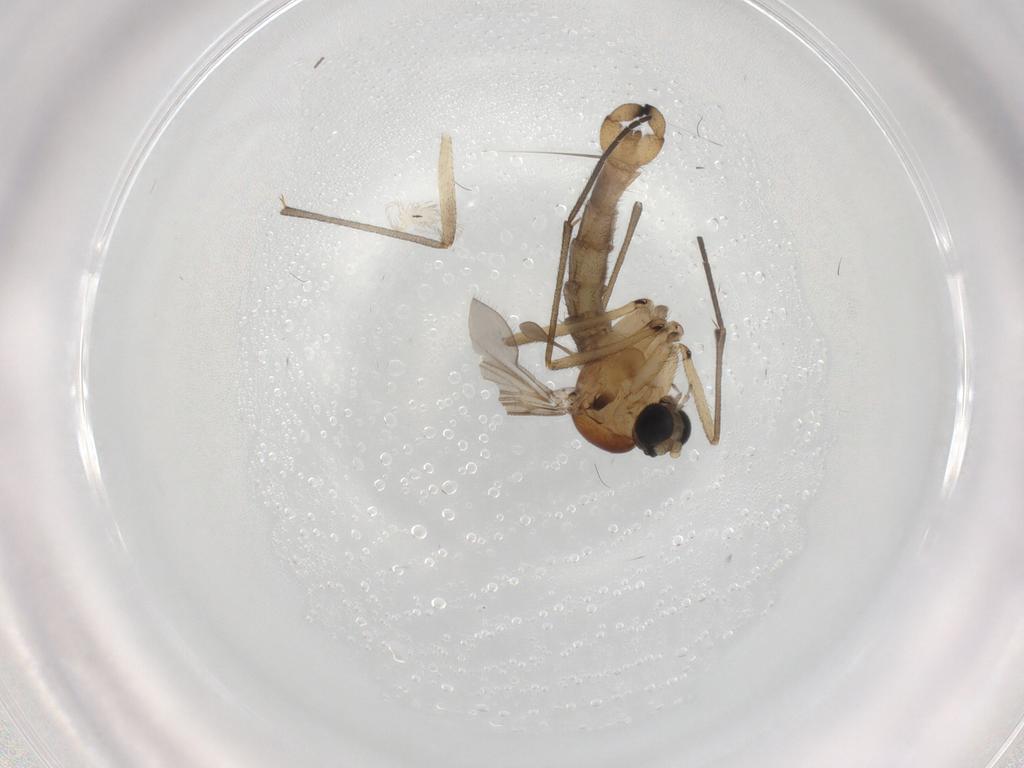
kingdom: Animalia
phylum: Arthropoda
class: Insecta
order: Diptera
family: Sciaridae
